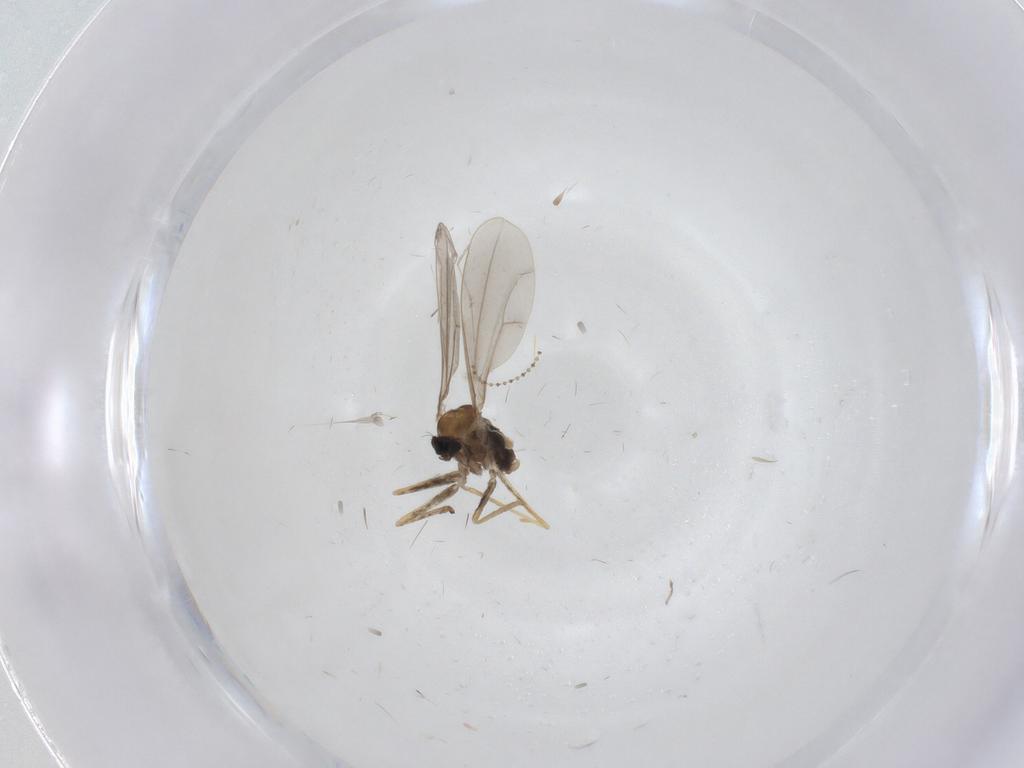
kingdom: Animalia
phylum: Arthropoda
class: Insecta
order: Diptera
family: Cecidomyiidae
